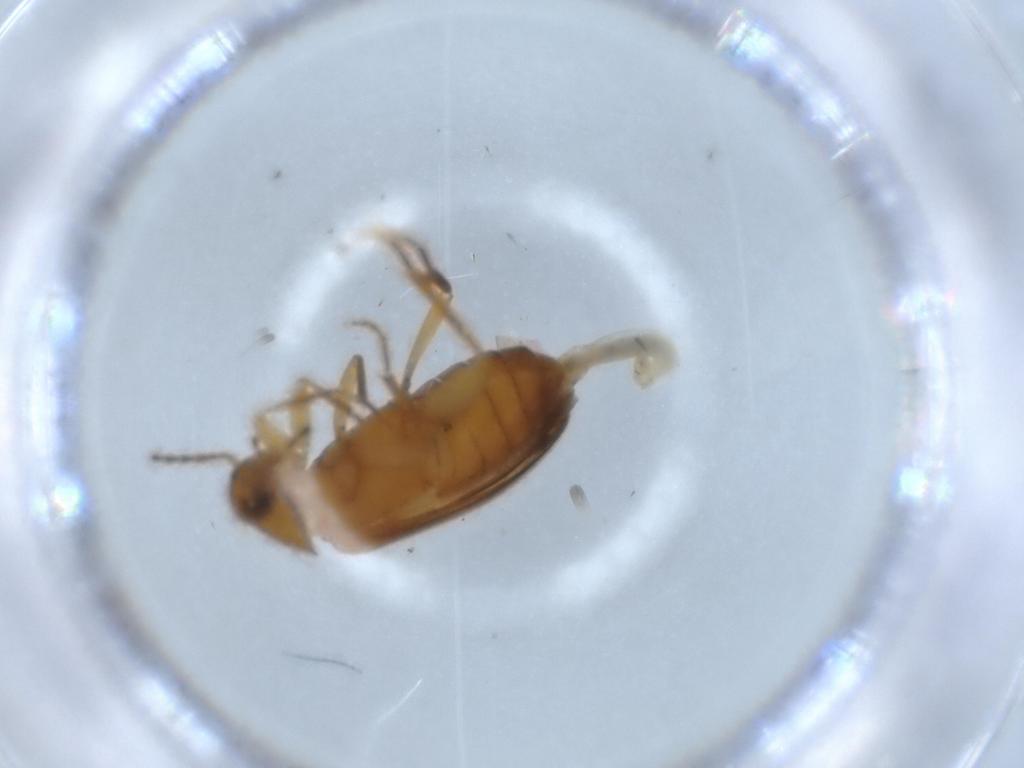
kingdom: Animalia
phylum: Arthropoda
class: Insecta
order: Coleoptera
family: Scraptiidae
